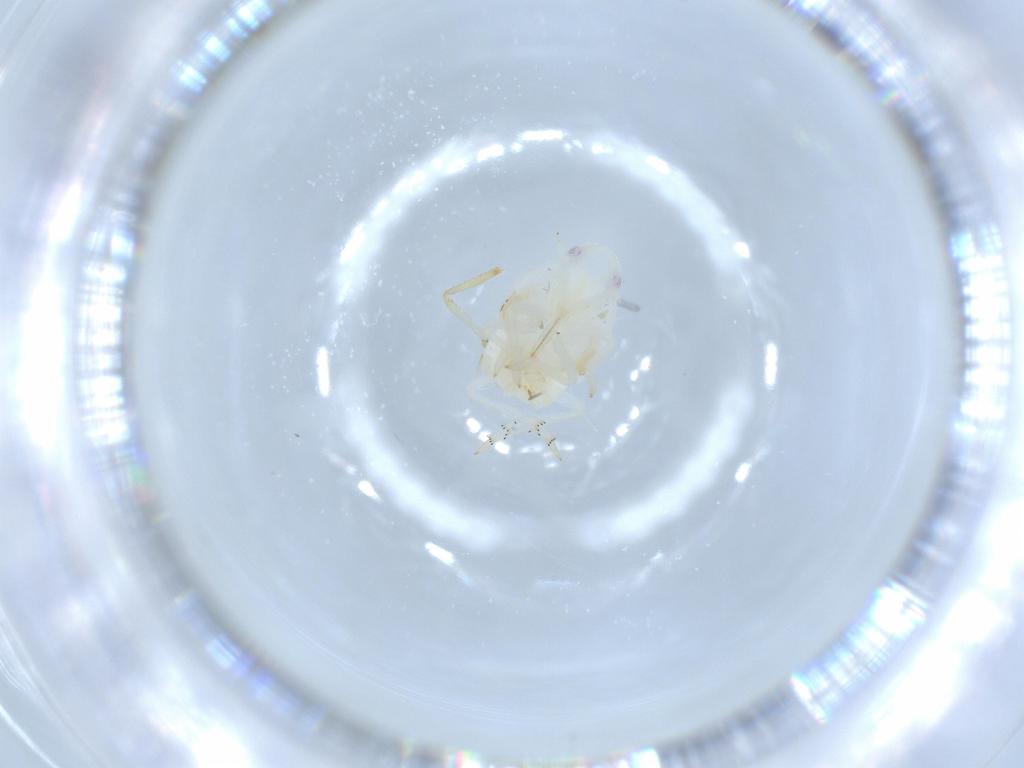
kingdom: Animalia
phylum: Arthropoda
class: Insecta
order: Hemiptera
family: Flatidae
